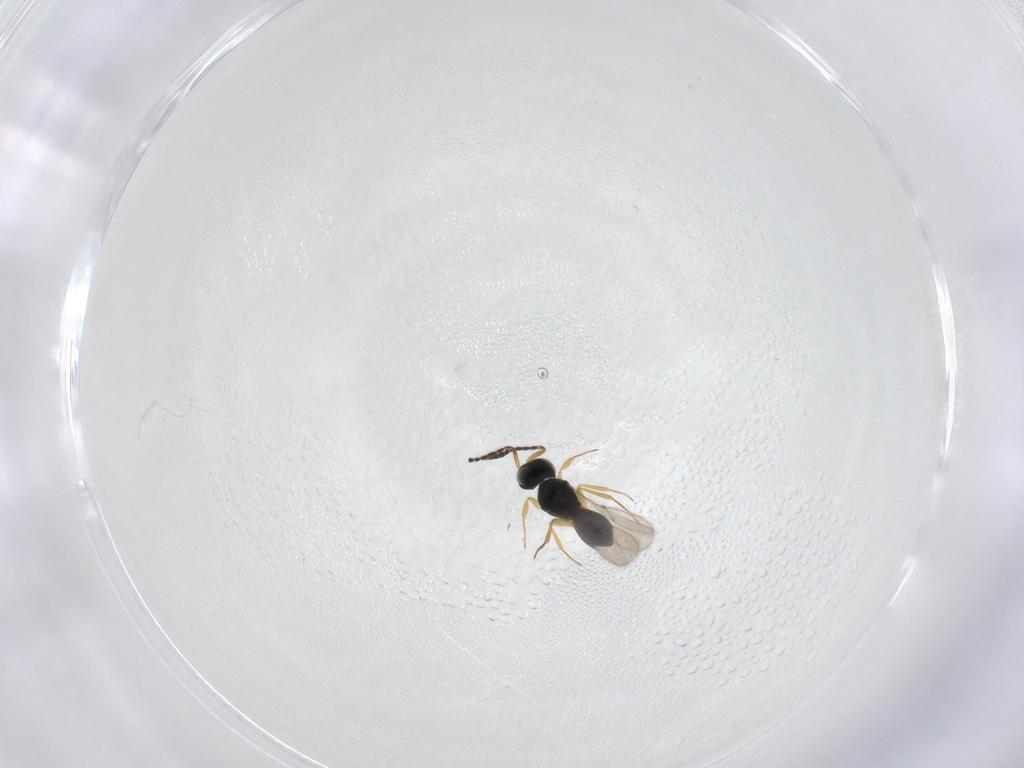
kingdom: Animalia
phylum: Arthropoda
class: Insecta
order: Hymenoptera
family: Scelionidae
